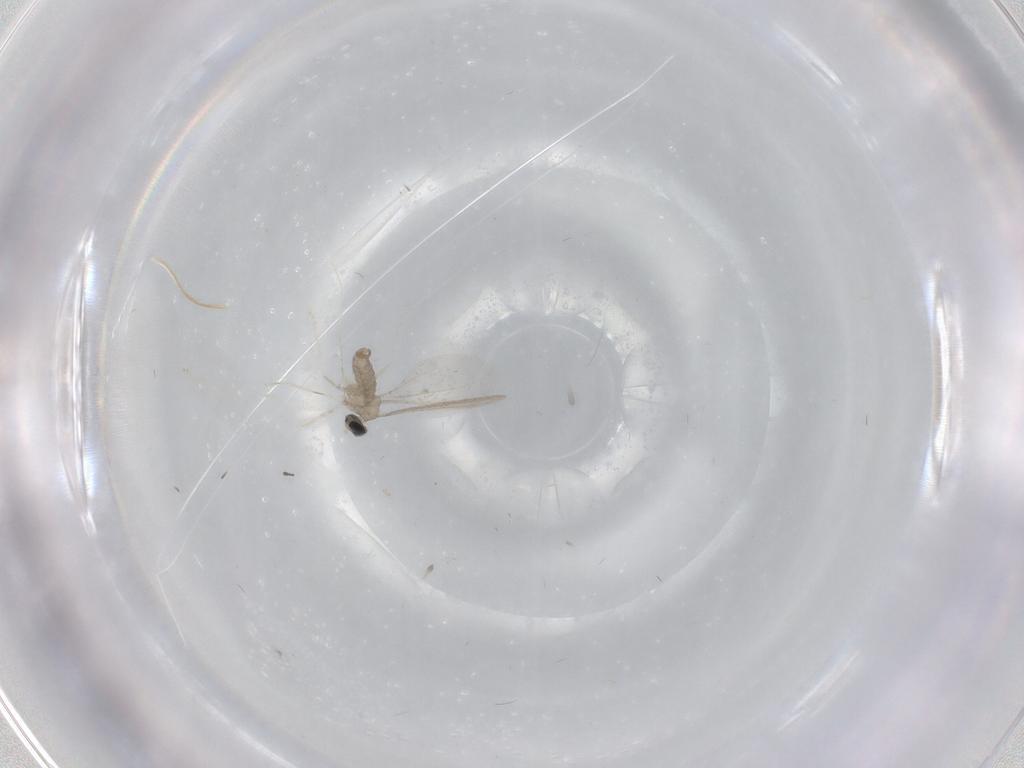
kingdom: Animalia
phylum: Arthropoda
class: Insecta
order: Diptera
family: Cecidomyiidae
